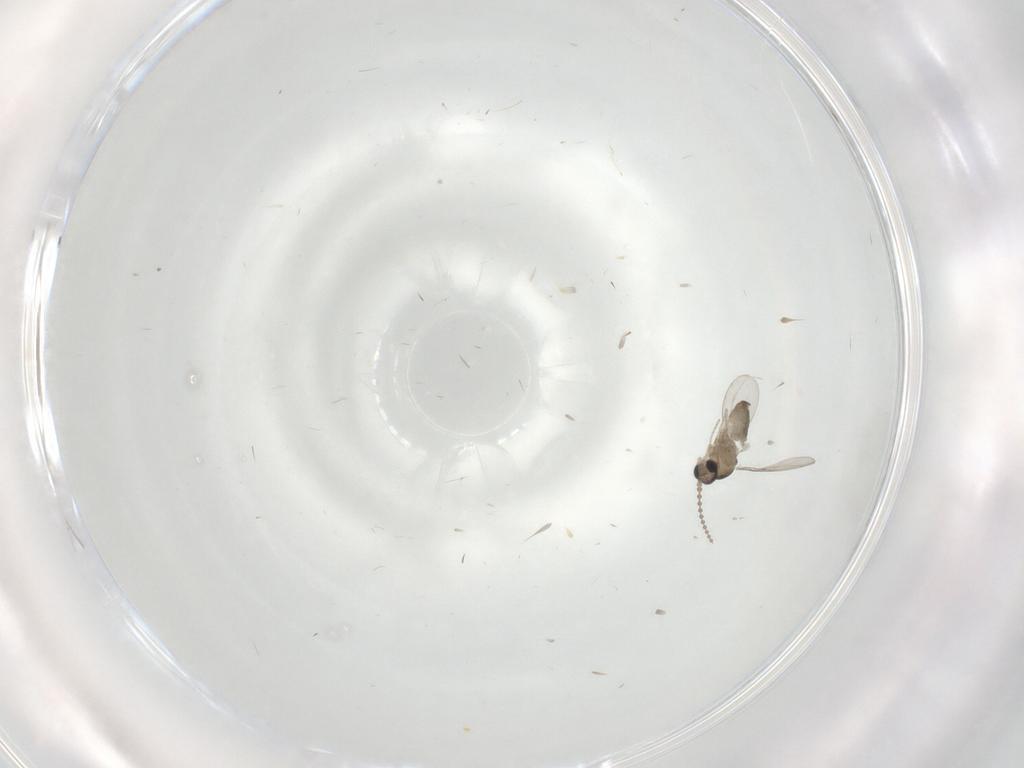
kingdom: Animalia
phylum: Arthropoda
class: Insecta
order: Diptera
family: Cecidomyiidae
